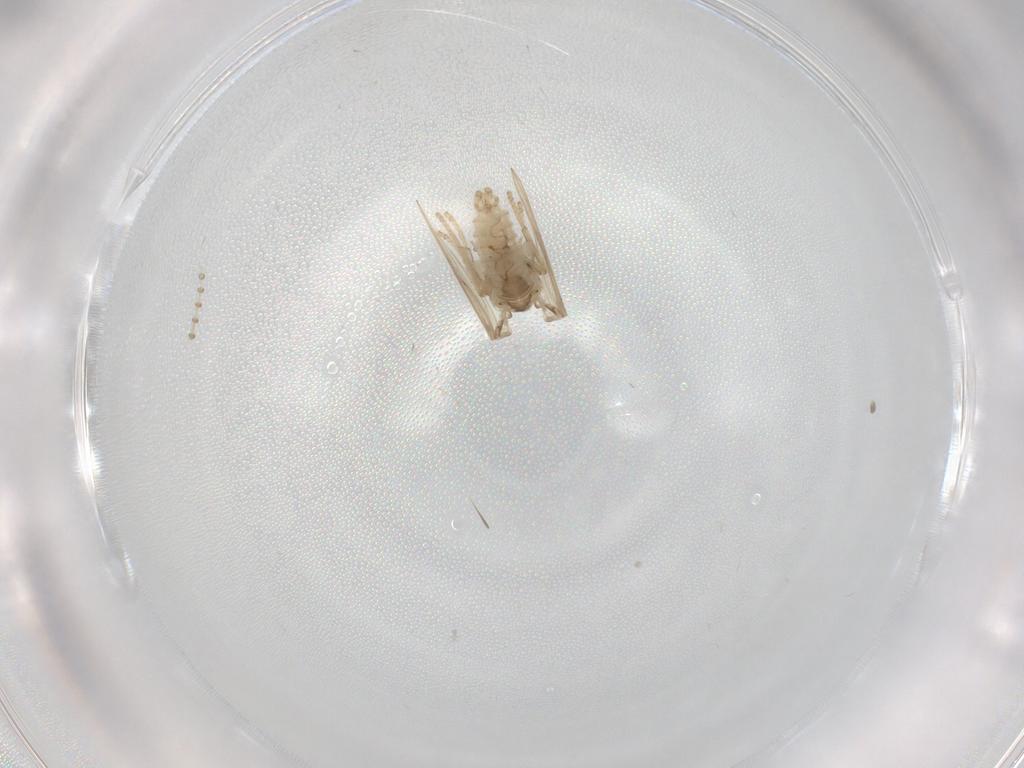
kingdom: Animalia
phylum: Arthropoda
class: Insecta
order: Diptera
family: Psychodidae
